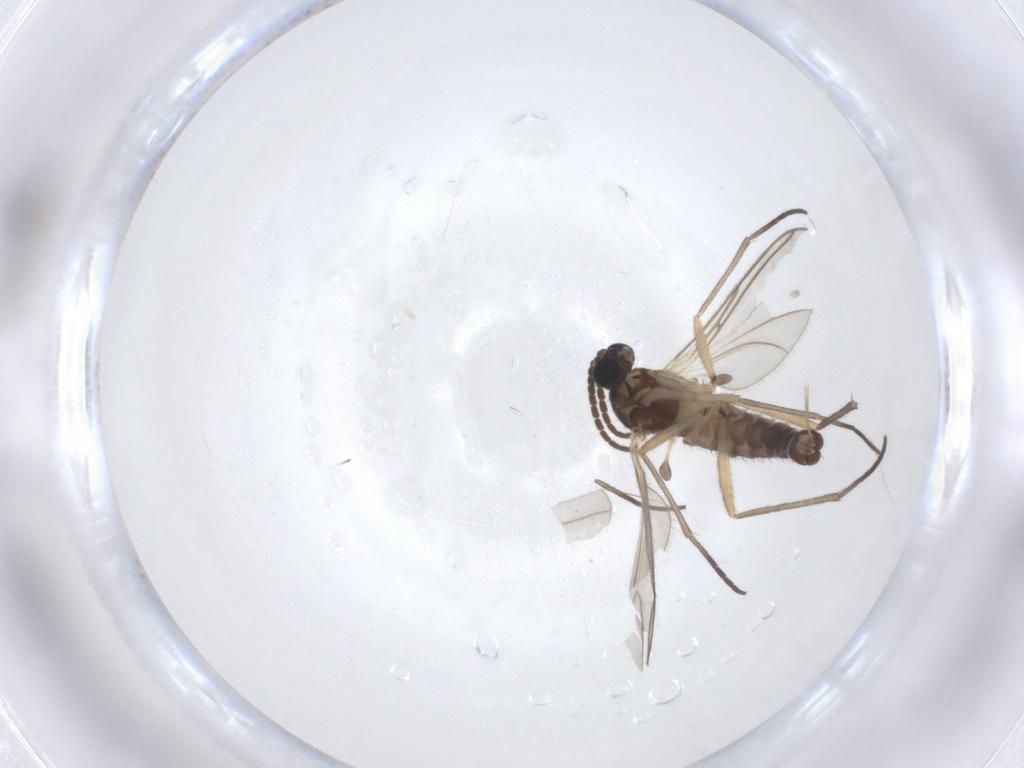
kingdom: Animalia
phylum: Arthropoda
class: Insecta
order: Diptera
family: Sciaridae
